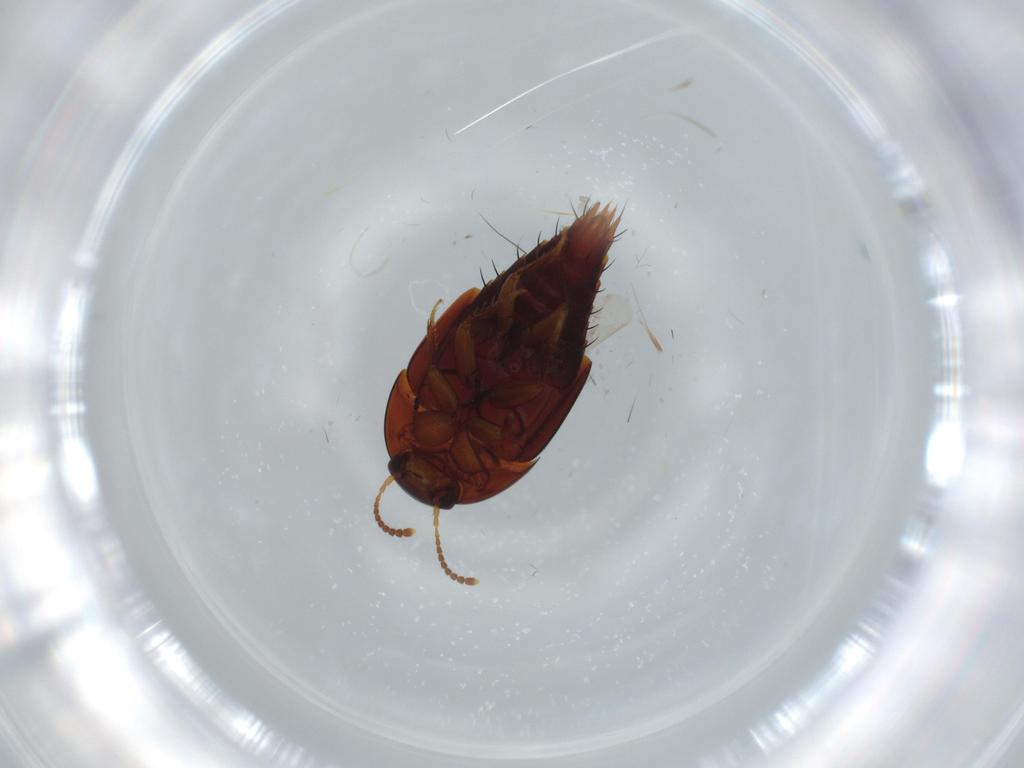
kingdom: Animalia
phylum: Arthropoda
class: Insecta
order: Coleoptera
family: Staphylinidae
